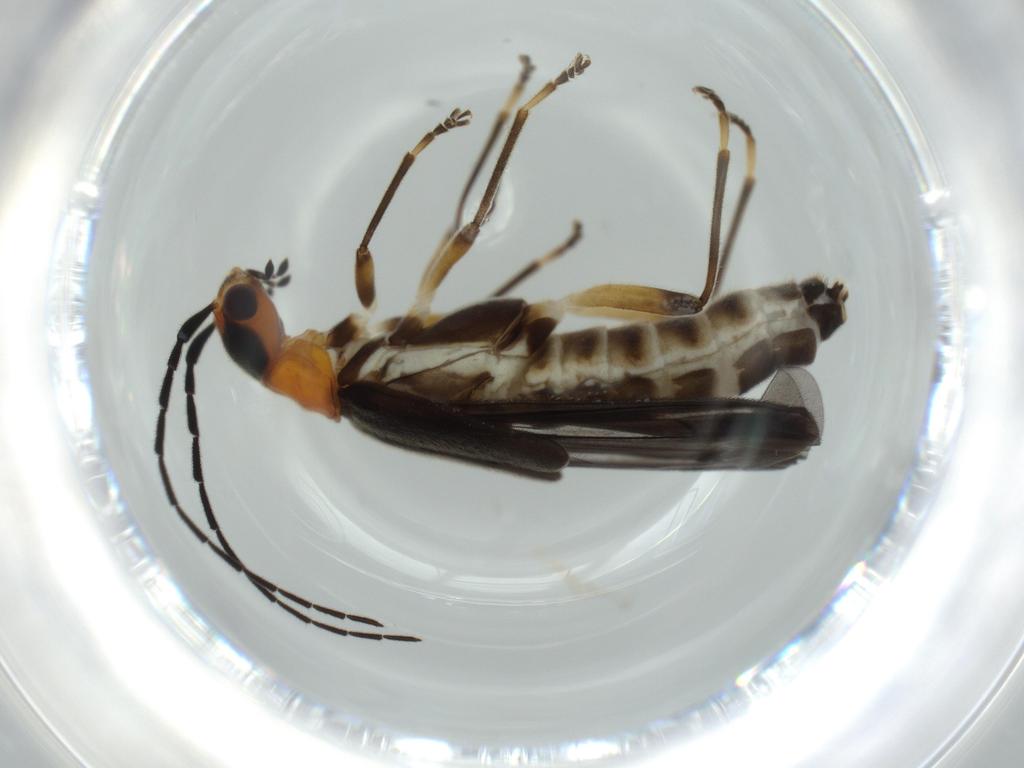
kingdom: Animalia
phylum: Arthropoda
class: Insecta
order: Coleoptera
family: Cantharidae
